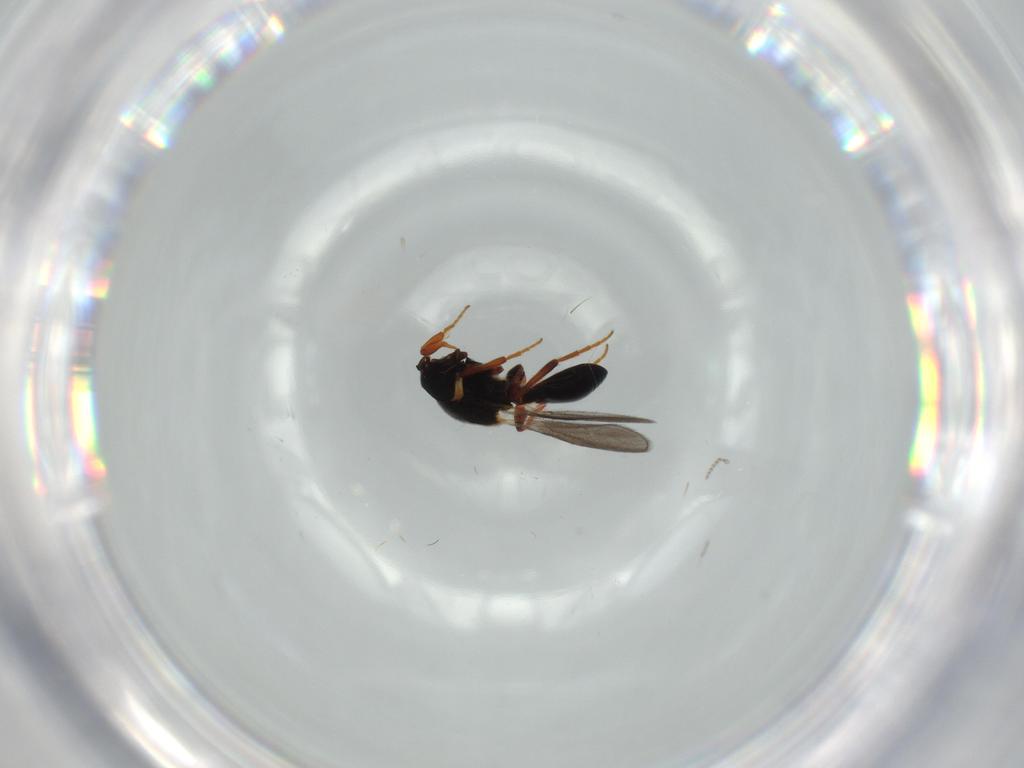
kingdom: Animalia
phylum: Arthropoda
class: Insecta
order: Hymenoptera
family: Platygastridae
